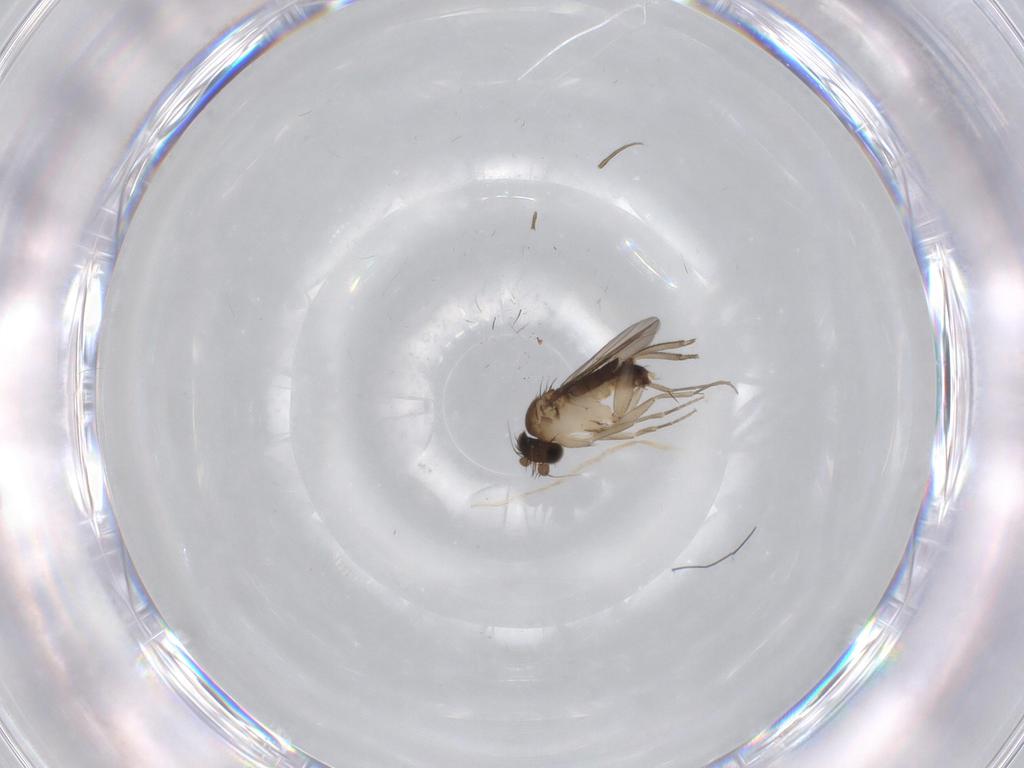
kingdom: Animalia
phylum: Arthropoda
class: Insecta
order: Diptera
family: Phoridae
